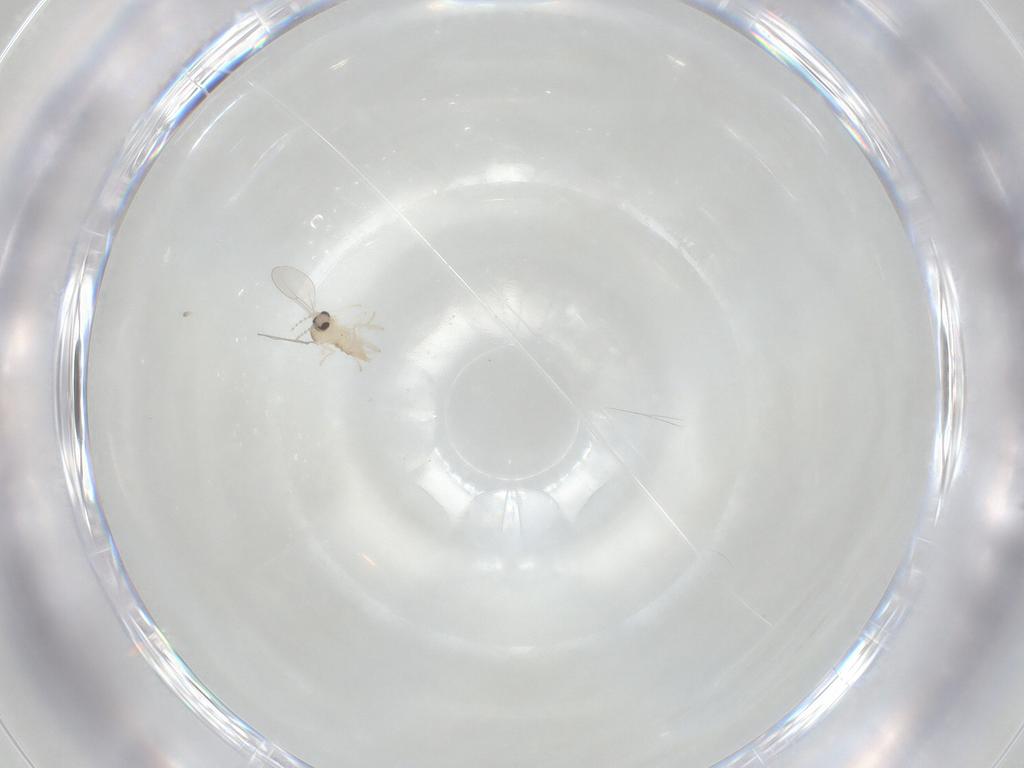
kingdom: Animalia
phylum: Arthropoda
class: Insecta
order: Diptera
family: Cecidomyiidae
